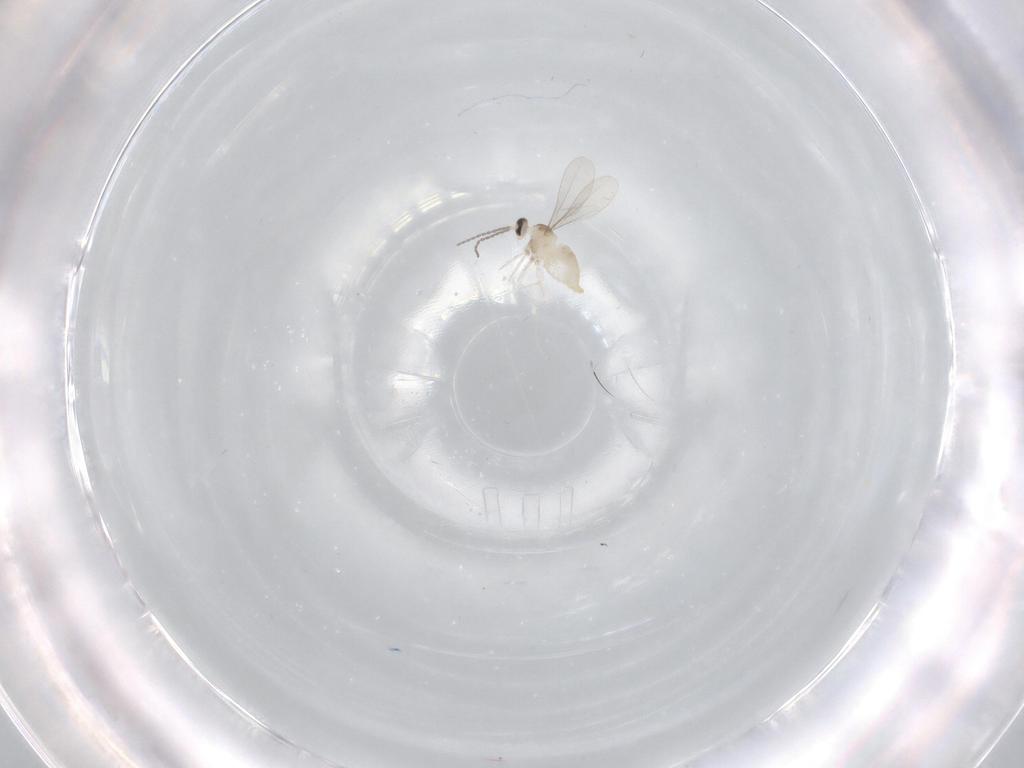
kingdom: Animalia
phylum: Arthropoda
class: Insecta
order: Diptera
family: Cecidomyiidae
